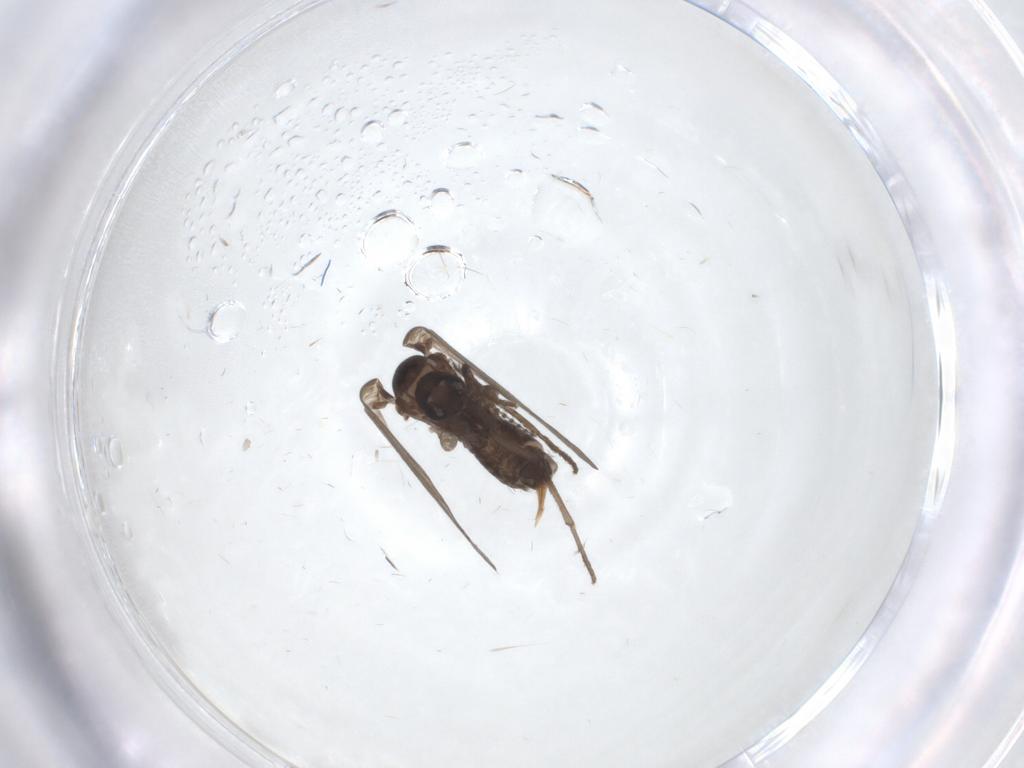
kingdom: Animalia
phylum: Arthropoda
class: Insecta
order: Diptera
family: Psychodidae
